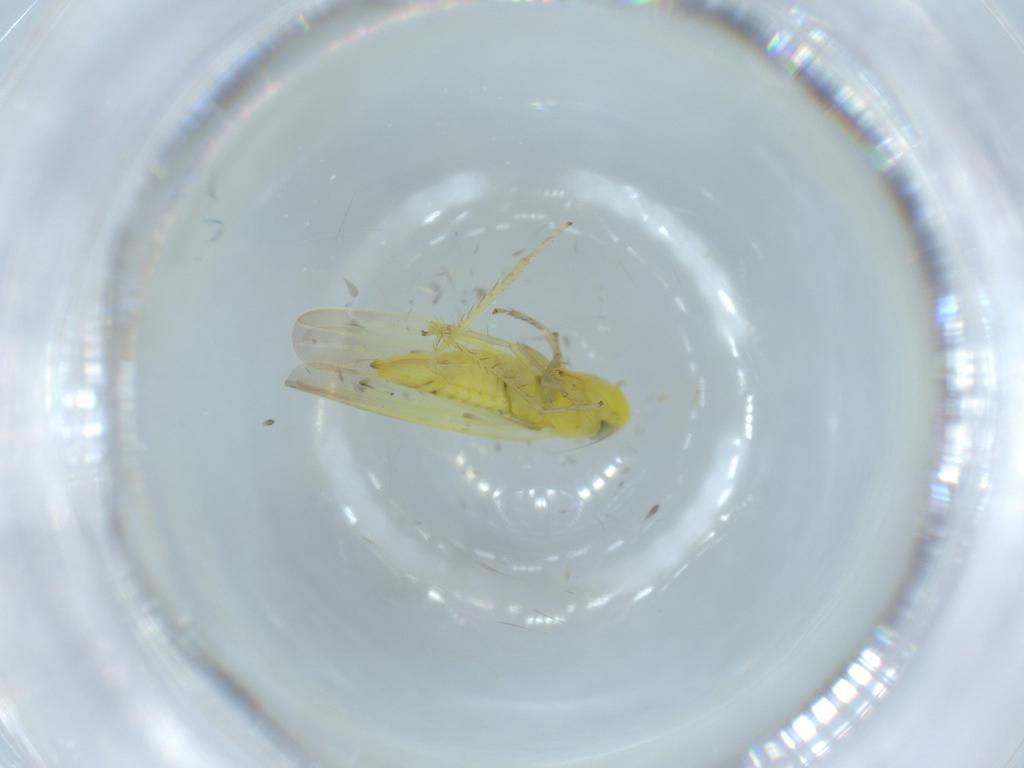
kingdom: Animalia
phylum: Arthropoda
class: Insecta
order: Hemiptera
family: Cicadellidae
